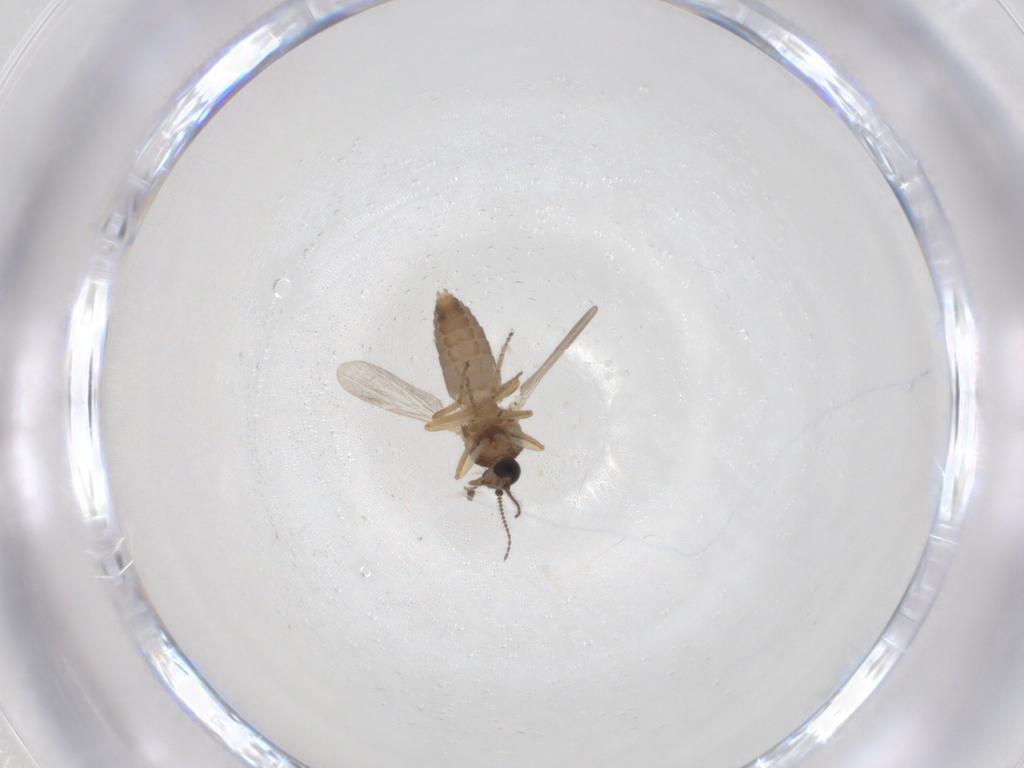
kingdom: Animalia
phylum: Arthropoda
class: Insecta
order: Diptera
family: Ceratopogonidae
